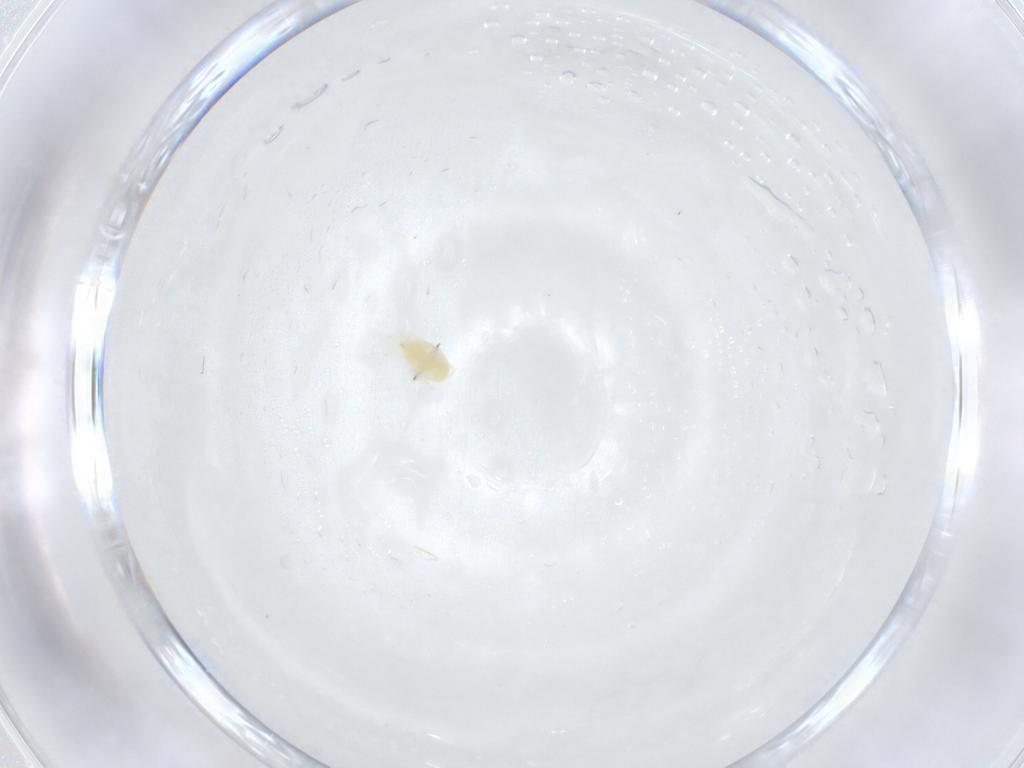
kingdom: Animalia
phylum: Arthropoda
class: Arachnida
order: Trombidiformes
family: Tetranychidae
